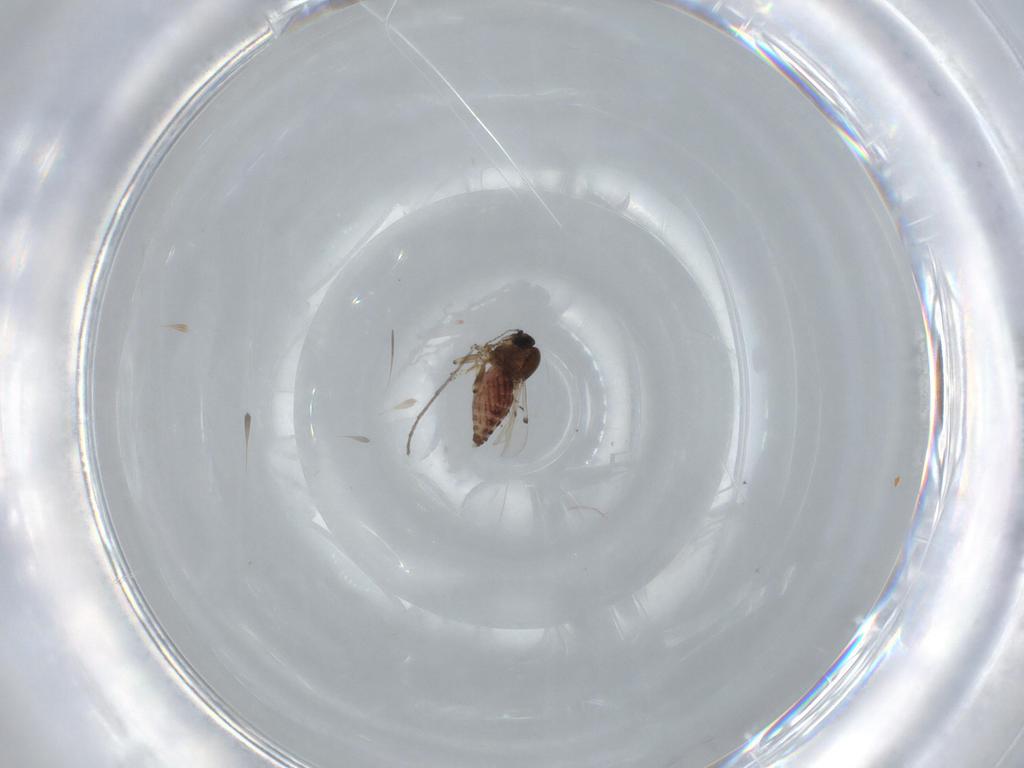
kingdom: Animalia
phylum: Arthropoda
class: Insecta
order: Diptera
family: Ceratopogonidae
